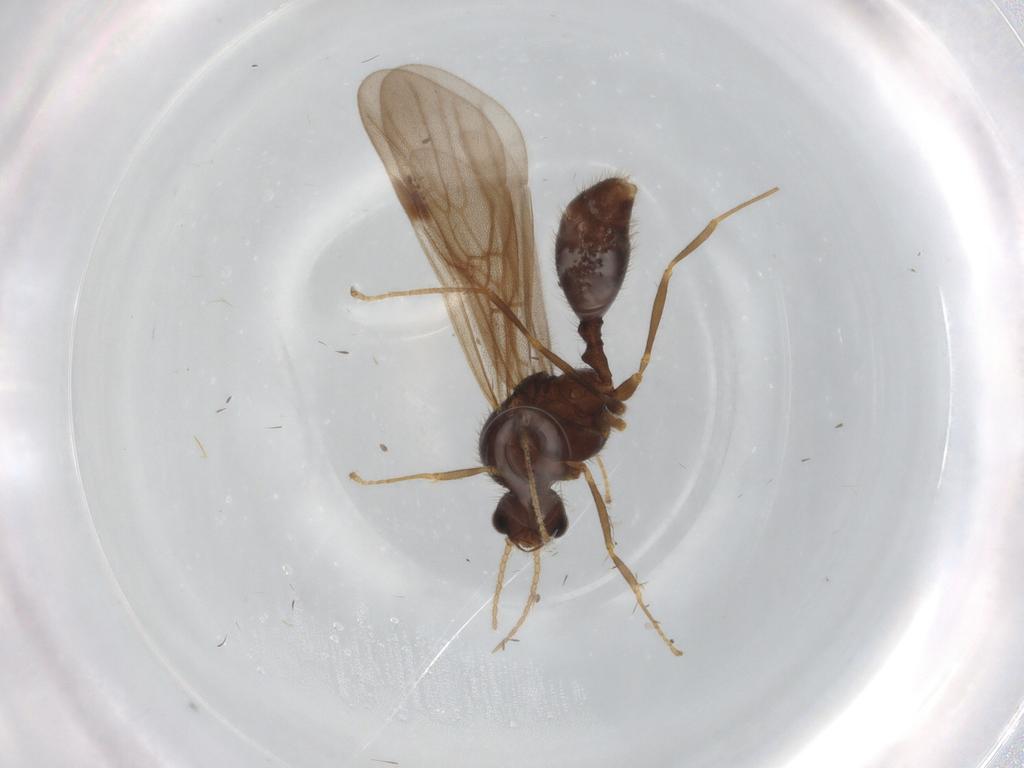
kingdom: Animalia
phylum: Arthropoda
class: Insecta
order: Hymenoptera
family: Formicidae
